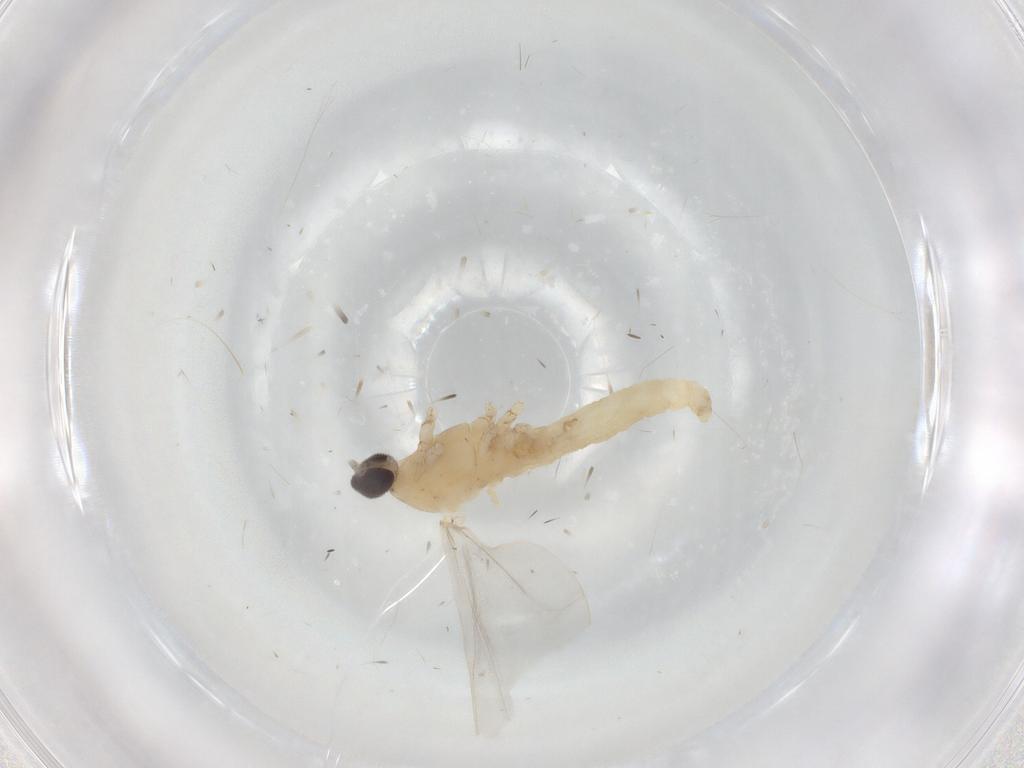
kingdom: Animalia
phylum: Arthropoda
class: Insecta
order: Diptera
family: Cecidomyiidae
